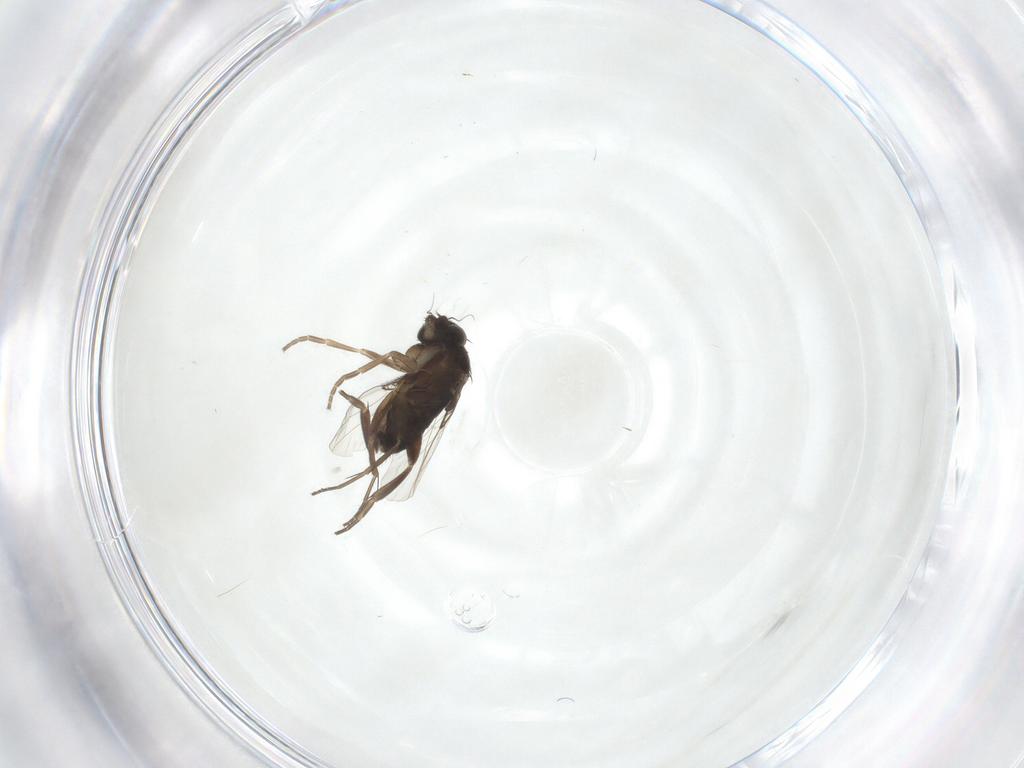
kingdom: Animalia
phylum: Arthropoda
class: Insecta
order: Diptera
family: Phoridae
